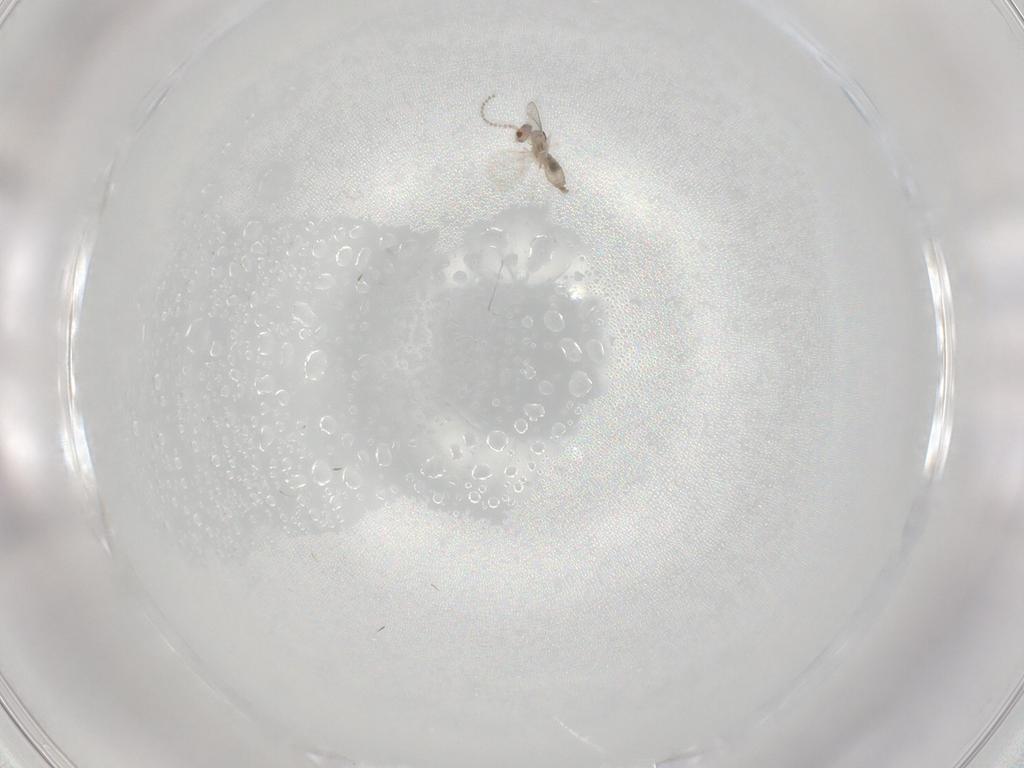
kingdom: Animalia
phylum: Arthropoda
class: Insecta
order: Diptera
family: Cecidomyiidae
